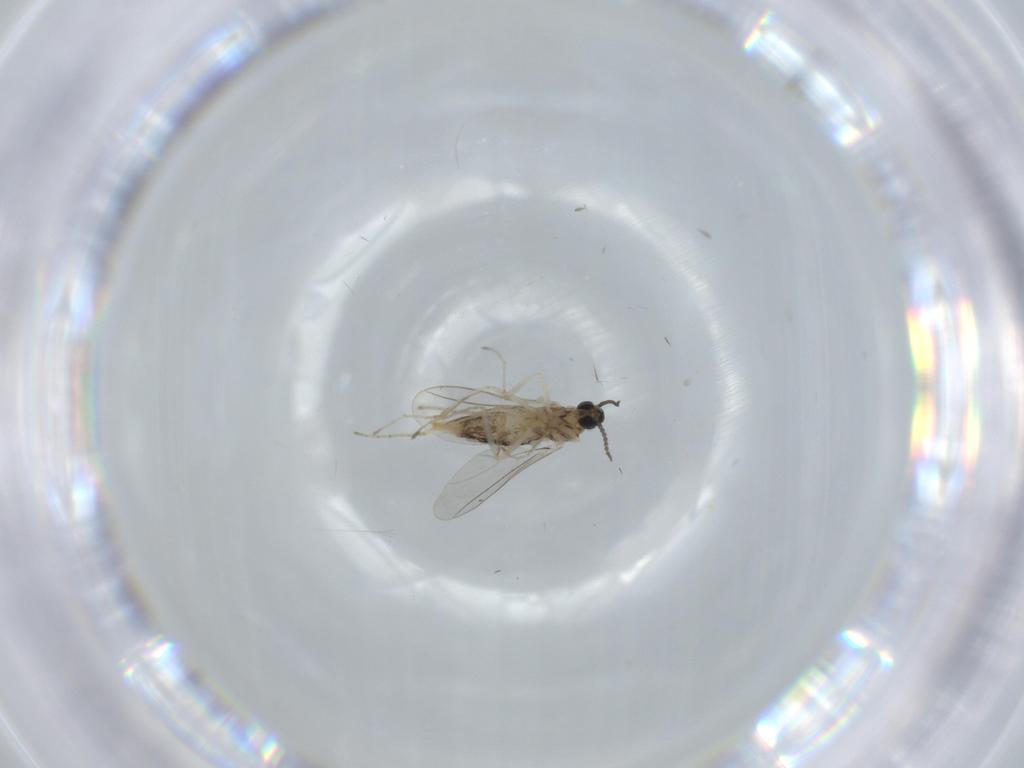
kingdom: Animalia
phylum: Arthropoda
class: Insecta
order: Diptera
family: Cecidomyiidae
